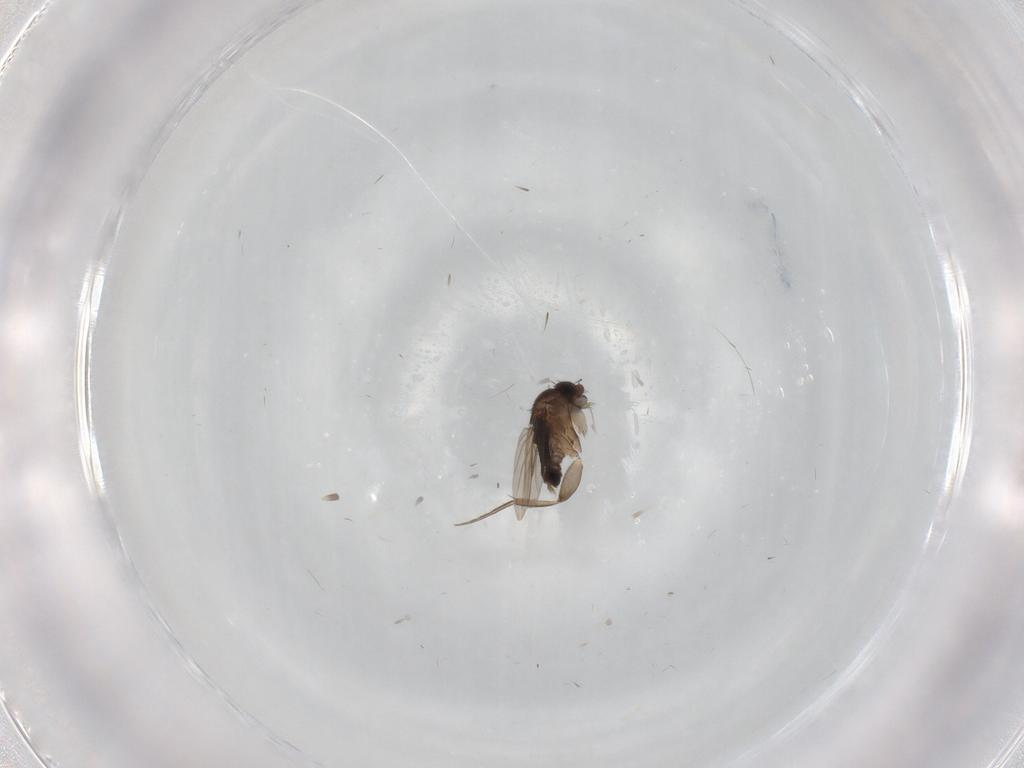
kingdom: Animalia
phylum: Arthropoda
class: Insecta
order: Diptera
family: Phoridae
